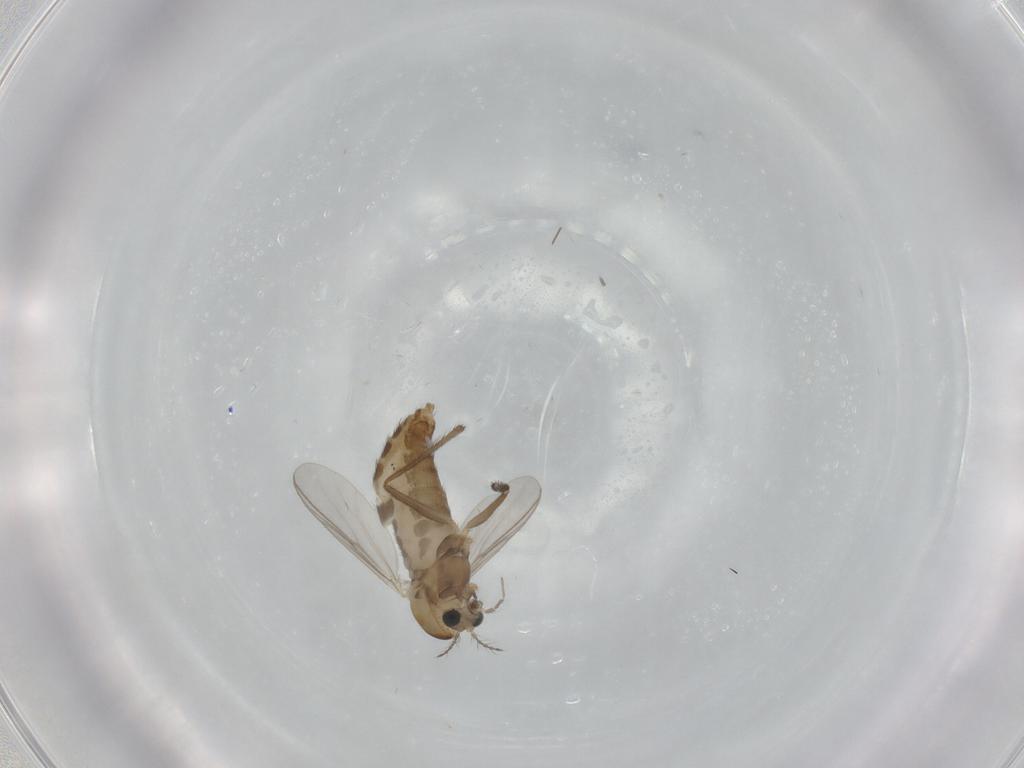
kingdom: Animalia
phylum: Arthropoda
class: Insecta
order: Diptera
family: Chironomidae
